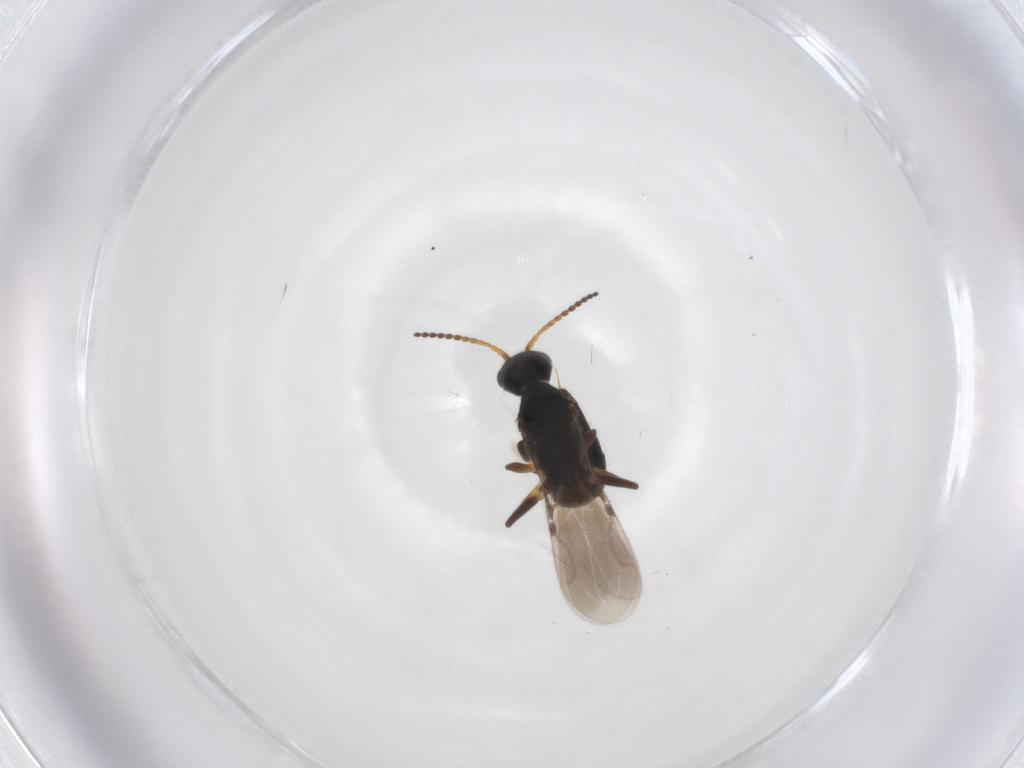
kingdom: Animalia
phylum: Arthropoda
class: Insecta
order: Hymenoptera
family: Bethylidae
